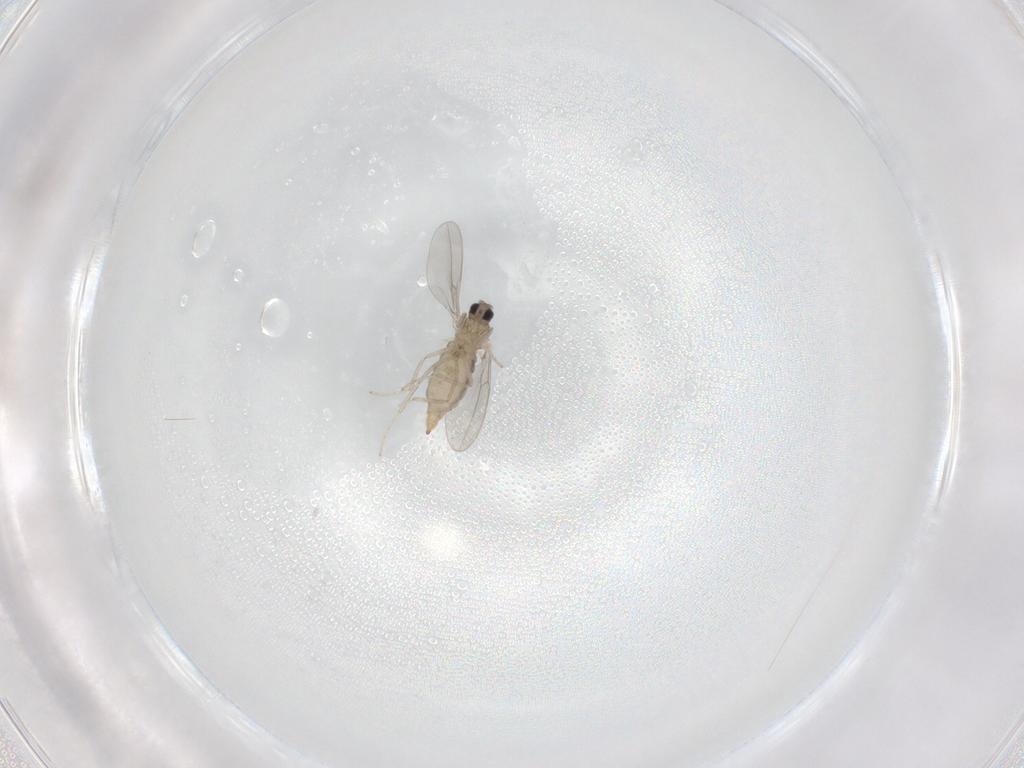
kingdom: Animalia
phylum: Arthropoda
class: Insecta
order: Diptera
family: Cecidomyiidae
